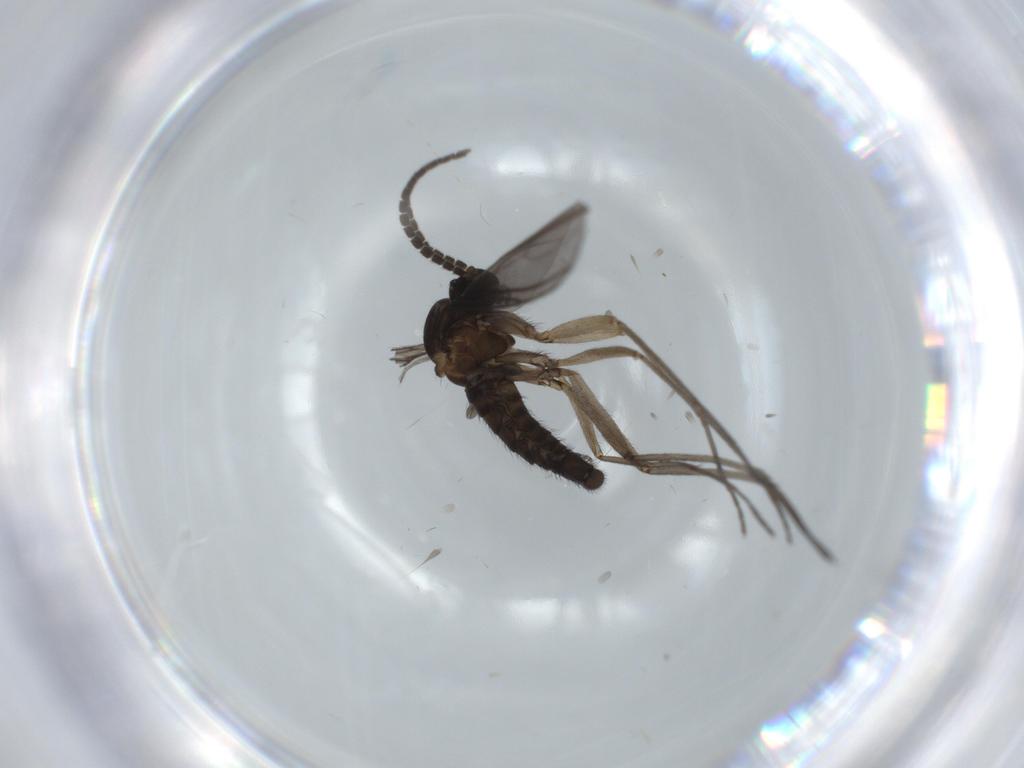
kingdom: Animalia
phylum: Arthropoda
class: Insecta
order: Diptera
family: Sciaridae
